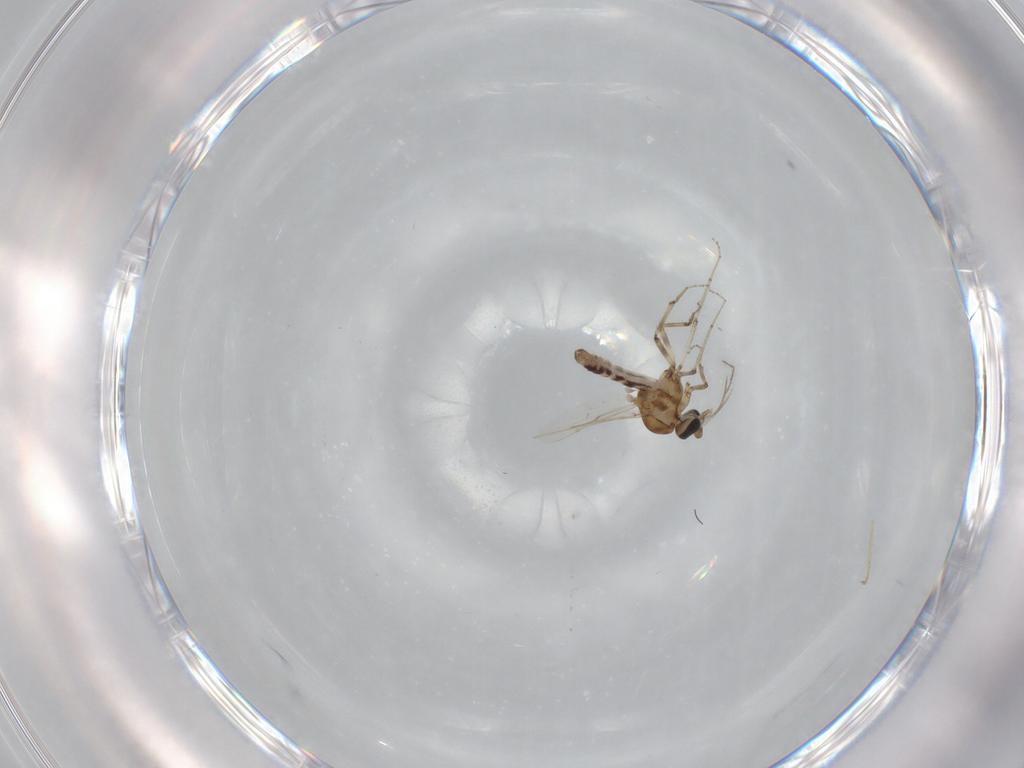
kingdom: Animalia
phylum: Arthropoda
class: Insecta
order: Diptera
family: Ceratopogonidae
